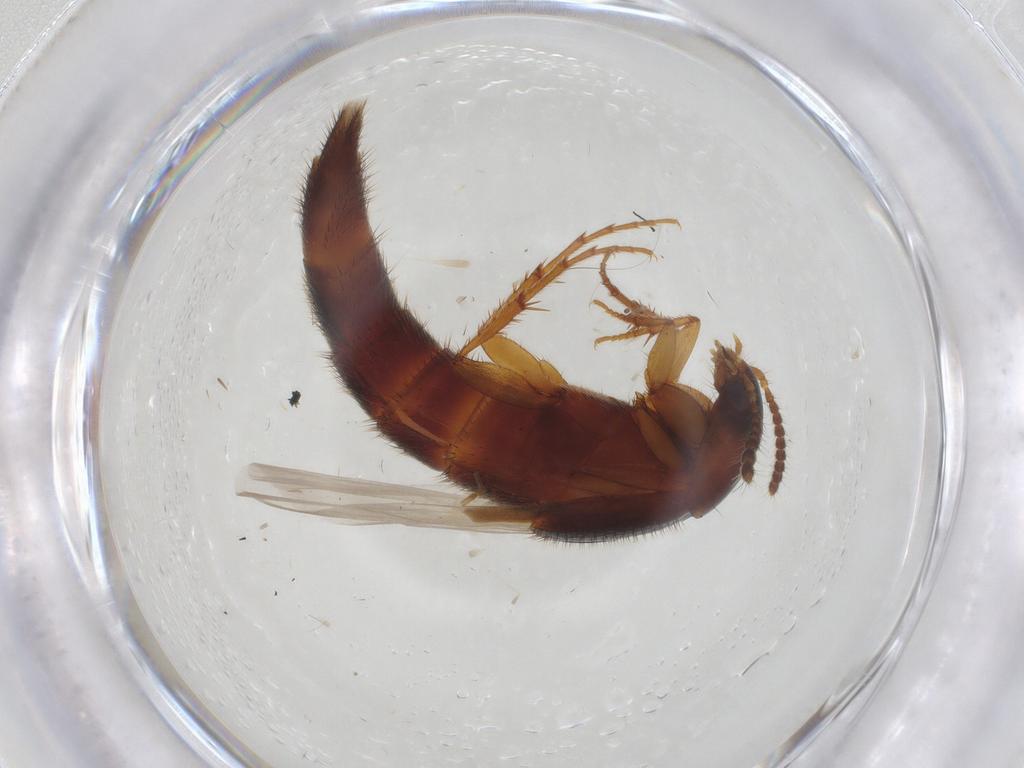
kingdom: Animalia
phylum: Arthropoda
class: Insecta
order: Coleoptera
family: Staphylinidae
